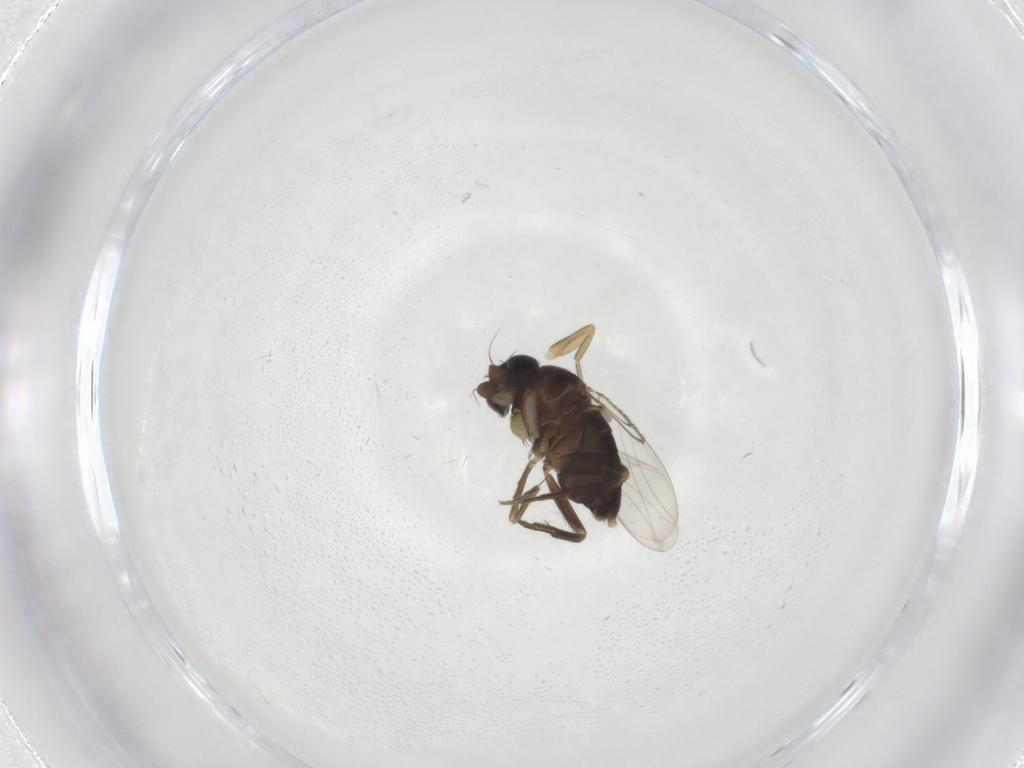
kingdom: Animalia
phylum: Arthropoda
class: Insecta
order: Diptera
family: Phoridae
